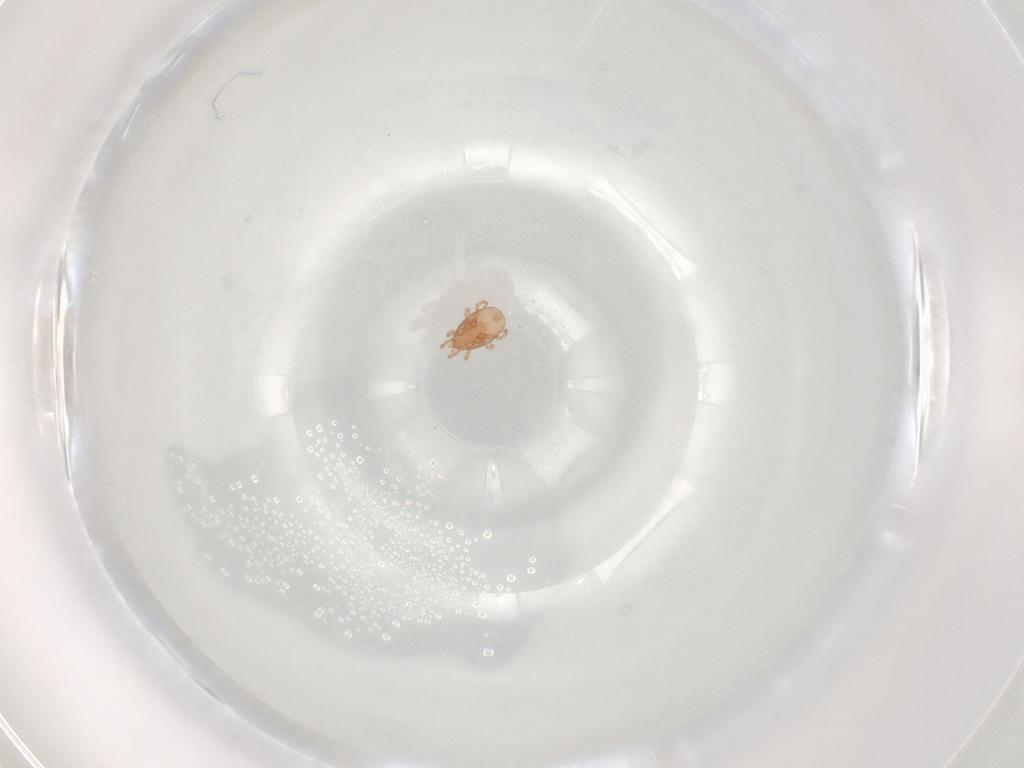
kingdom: Animalia
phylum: Arthropoda
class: Arachnida
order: Mesostigmata
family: Melicharidae
